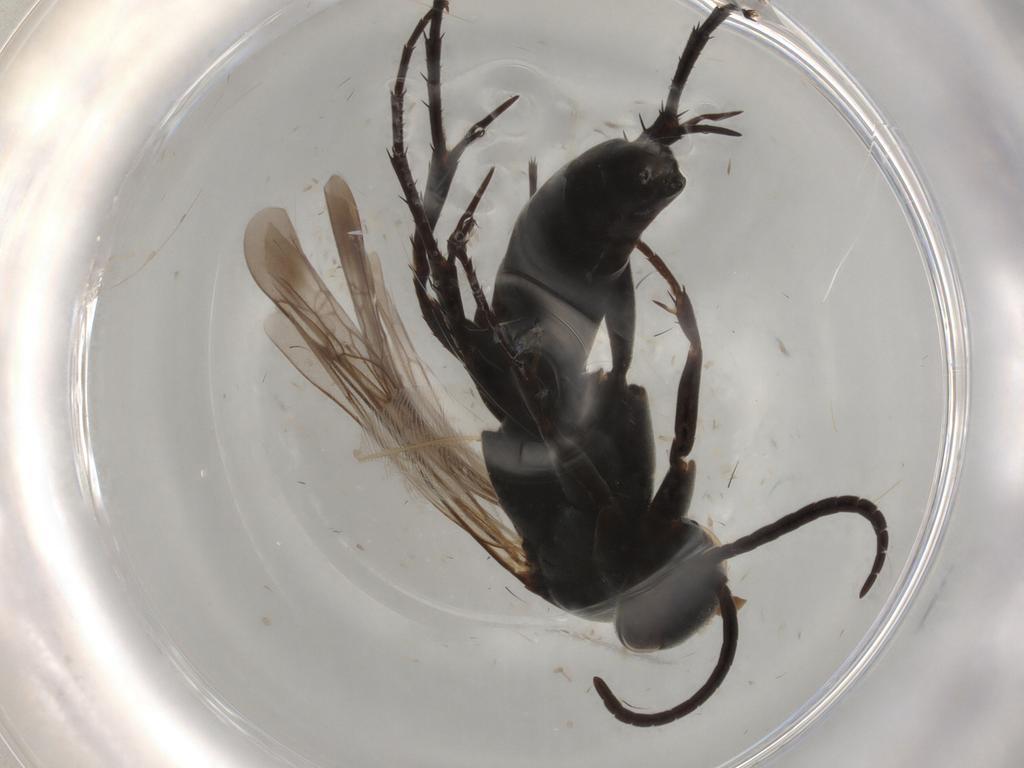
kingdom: Animalia
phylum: Arthropoda
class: Insecta
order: Hymenoptera
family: Pompilidae
